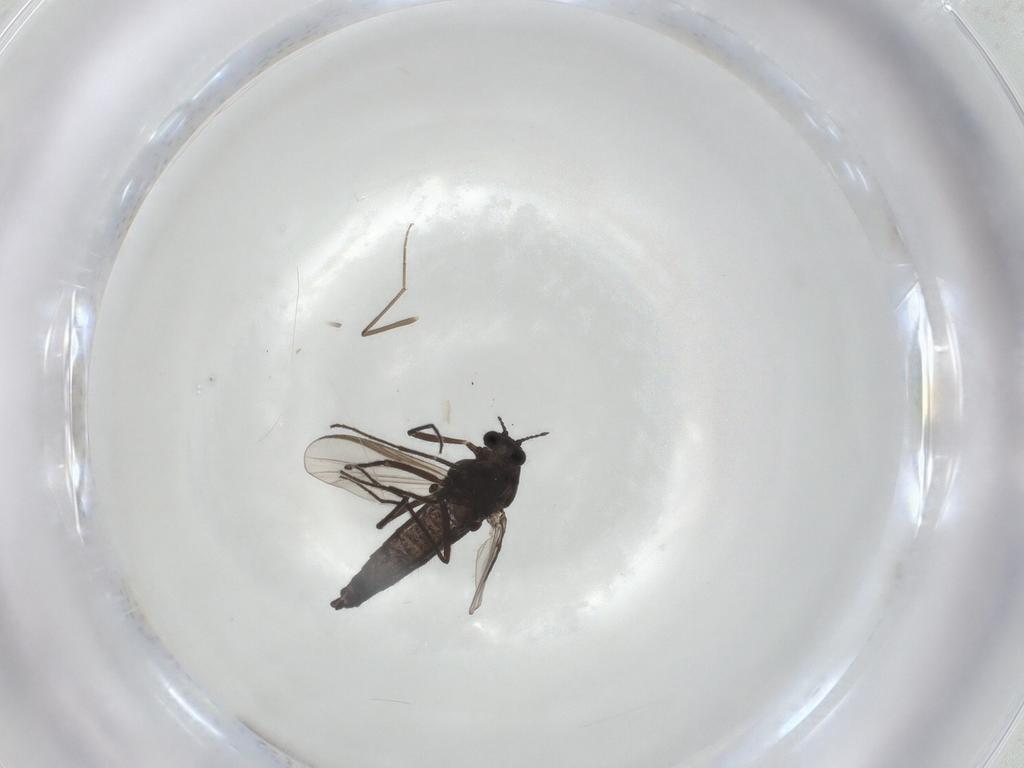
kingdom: Animalia
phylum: Arthropoda
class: Insecta
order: Diptera
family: Chironomidae
